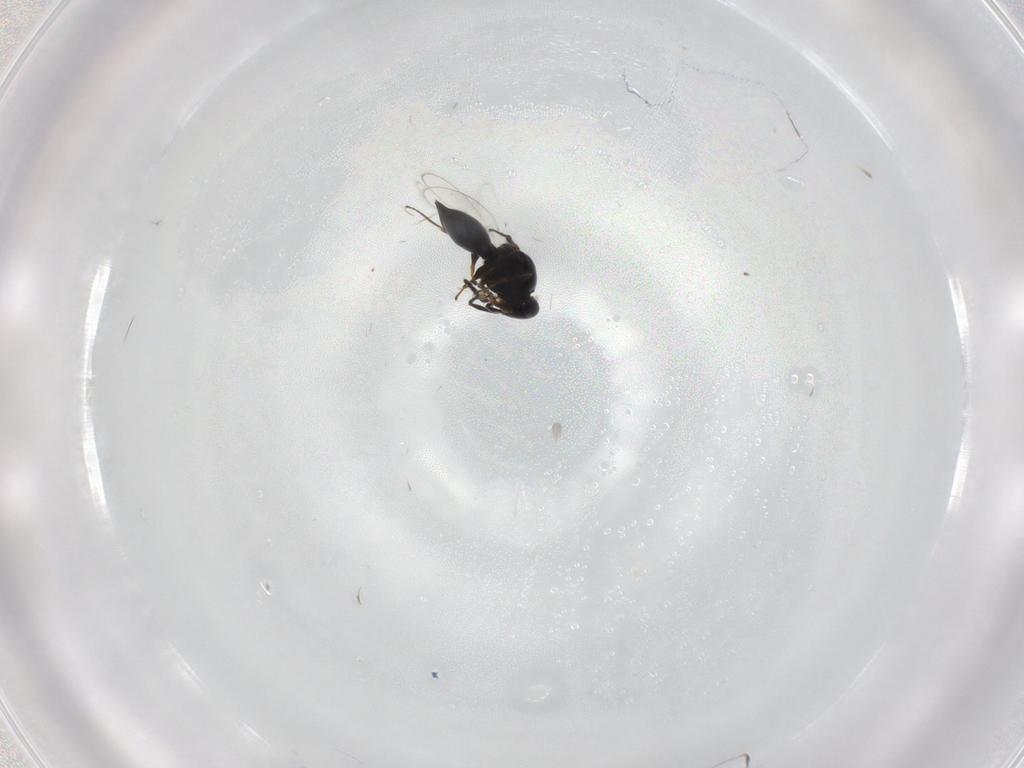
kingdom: Animalia
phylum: Arthropoda
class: Insecta
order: Hymenoptera
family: Platygastridae
